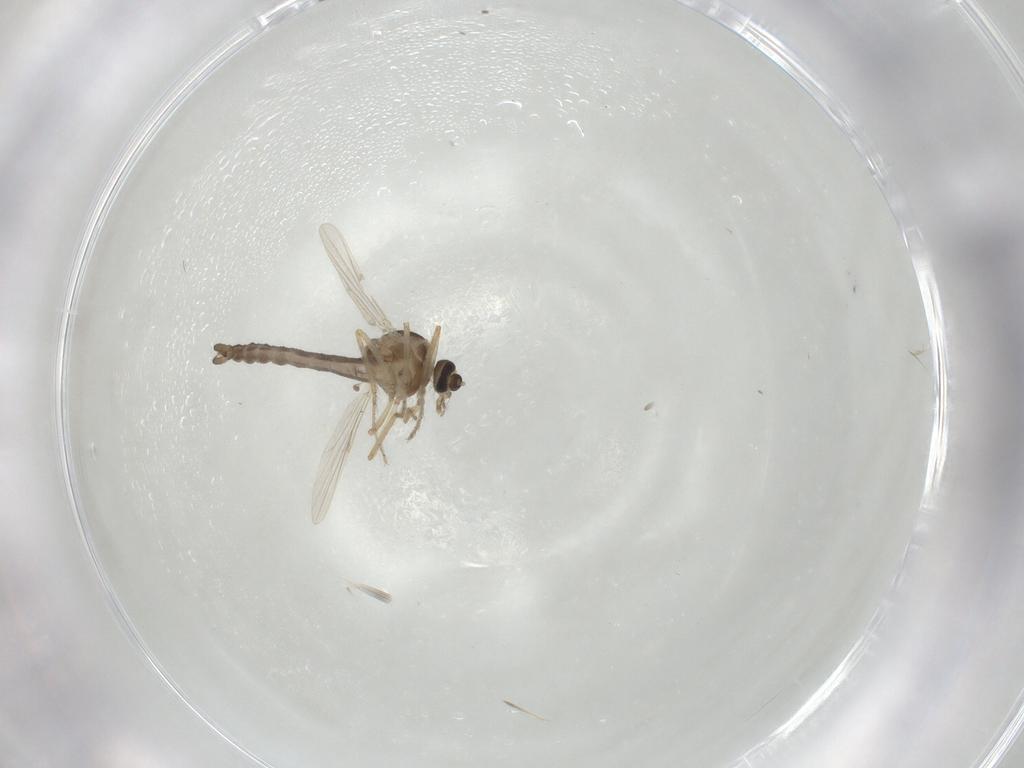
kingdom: Animalia
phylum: Arthropoda
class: Insecta
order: Diptera
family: Ceratopogonidae
